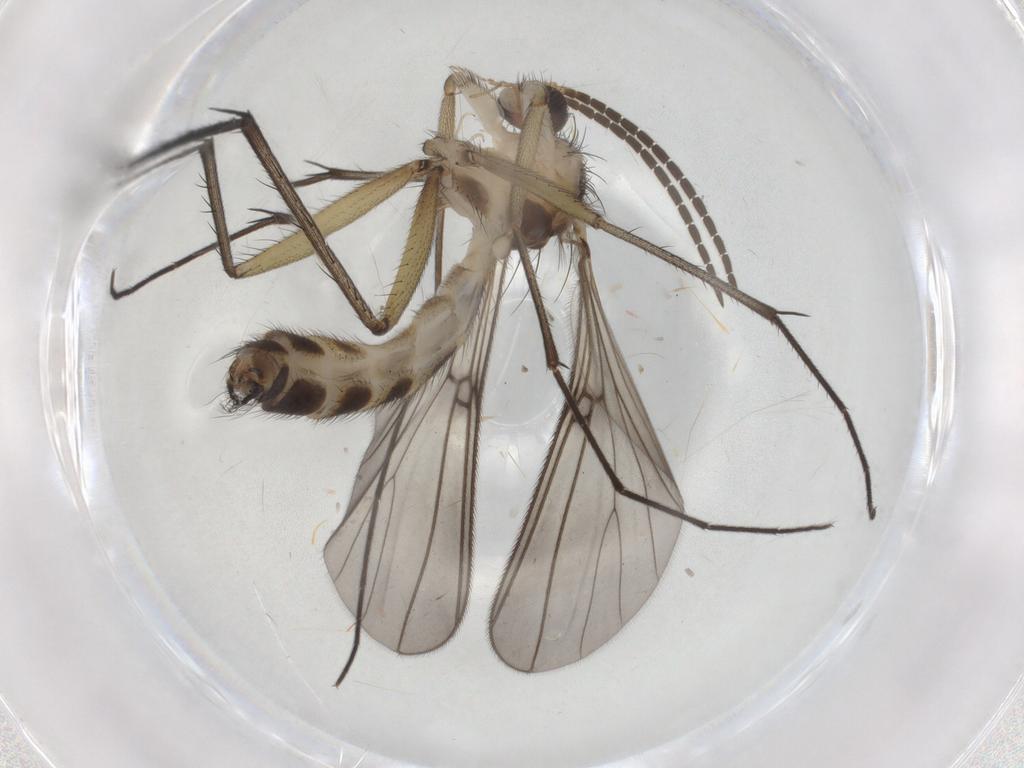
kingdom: Animalia
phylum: Arthropoda
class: Insecta
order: Diptera
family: Mycetophilidae
